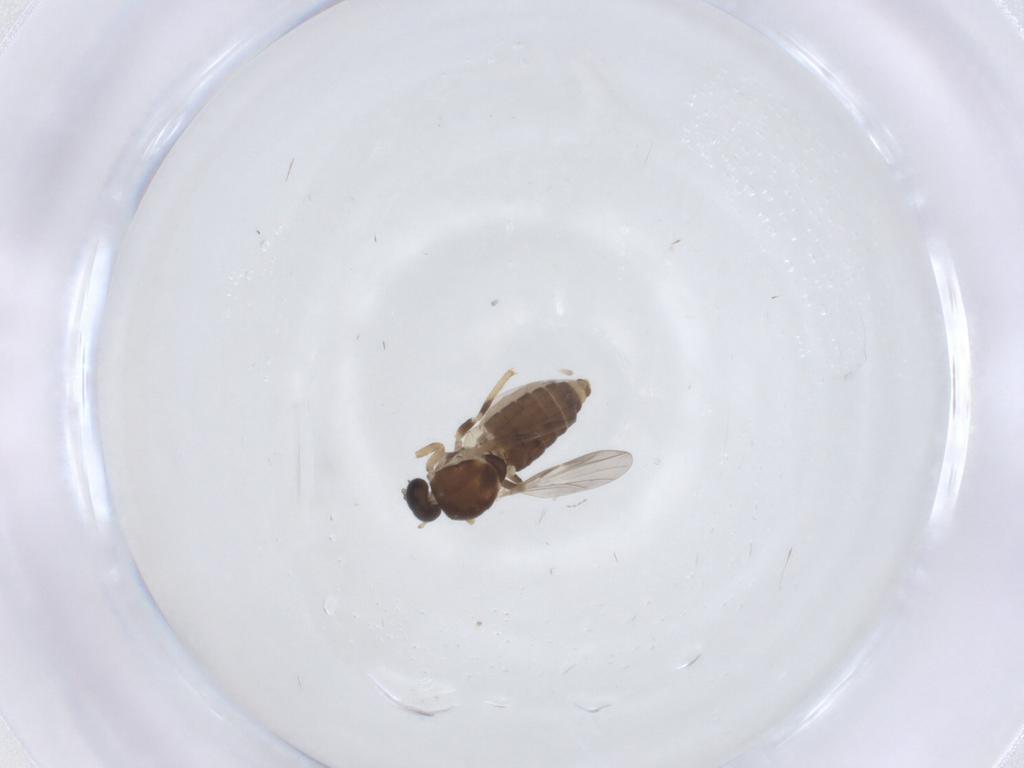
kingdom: Animalia
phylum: Arthropoda
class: Insecta
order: Diptera
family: Ceratopogonidae
